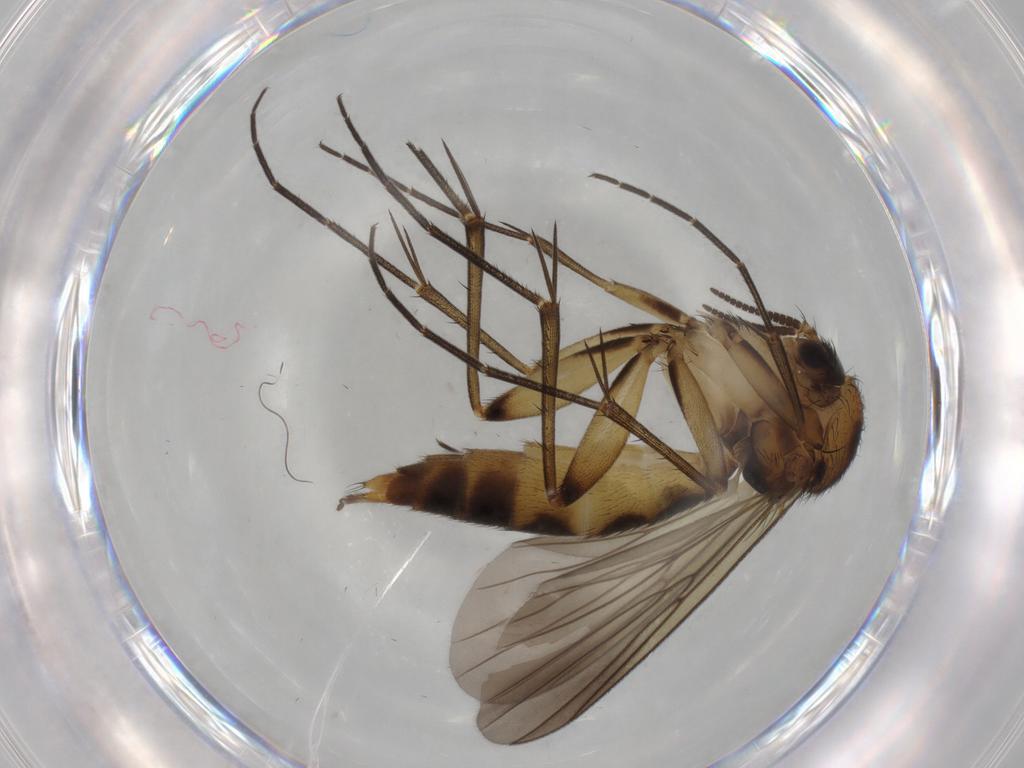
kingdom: Animalia
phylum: Arthropoda
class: Insecta
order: Diptera
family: Mycetophilidae
